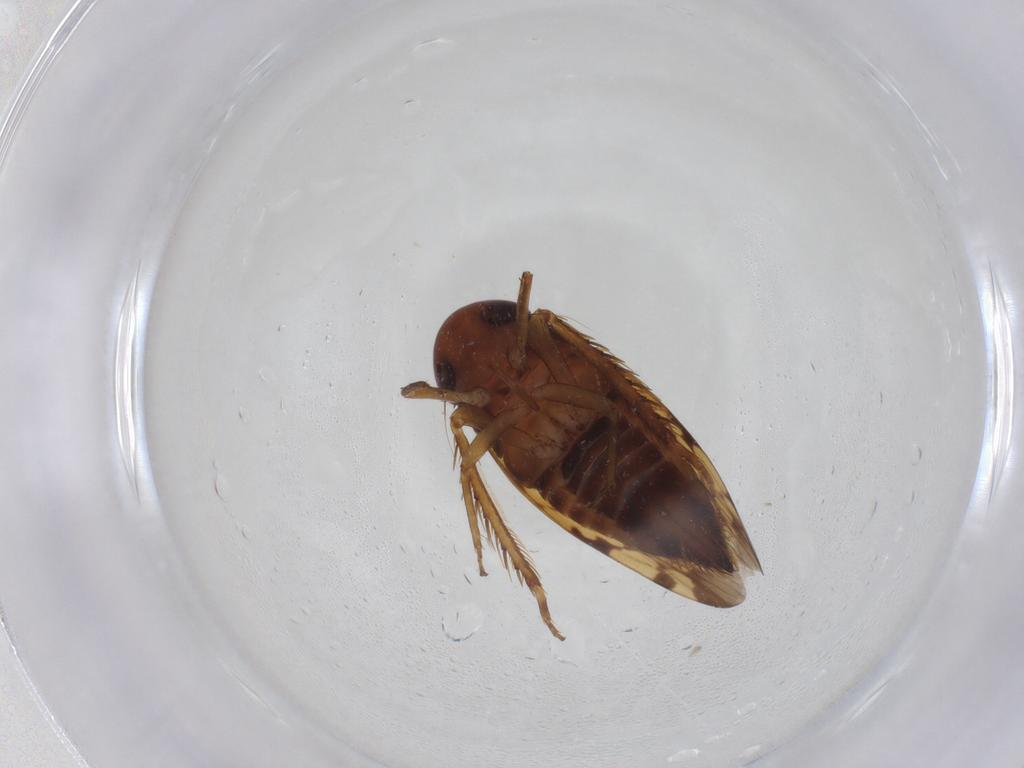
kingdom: Animalia
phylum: Arthropoda
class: Insecta
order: Hemiptera
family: Cicadellidae
